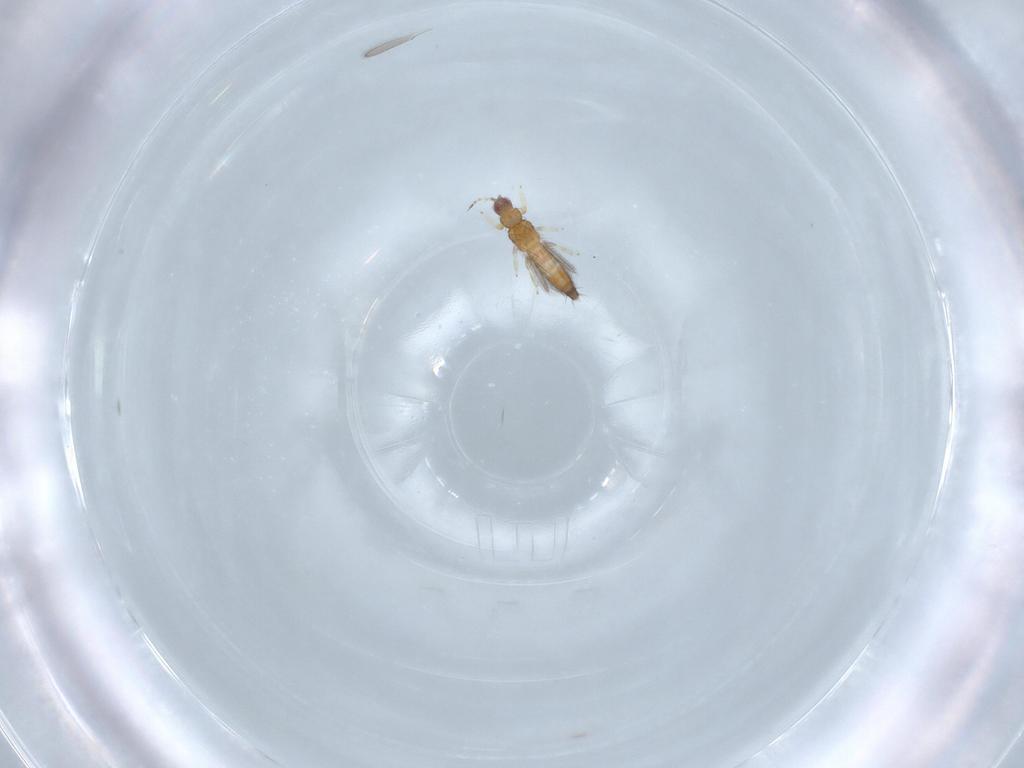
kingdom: Animalia
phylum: Arthropoda
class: Insecta
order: Thysanoptera
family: Thripidae
